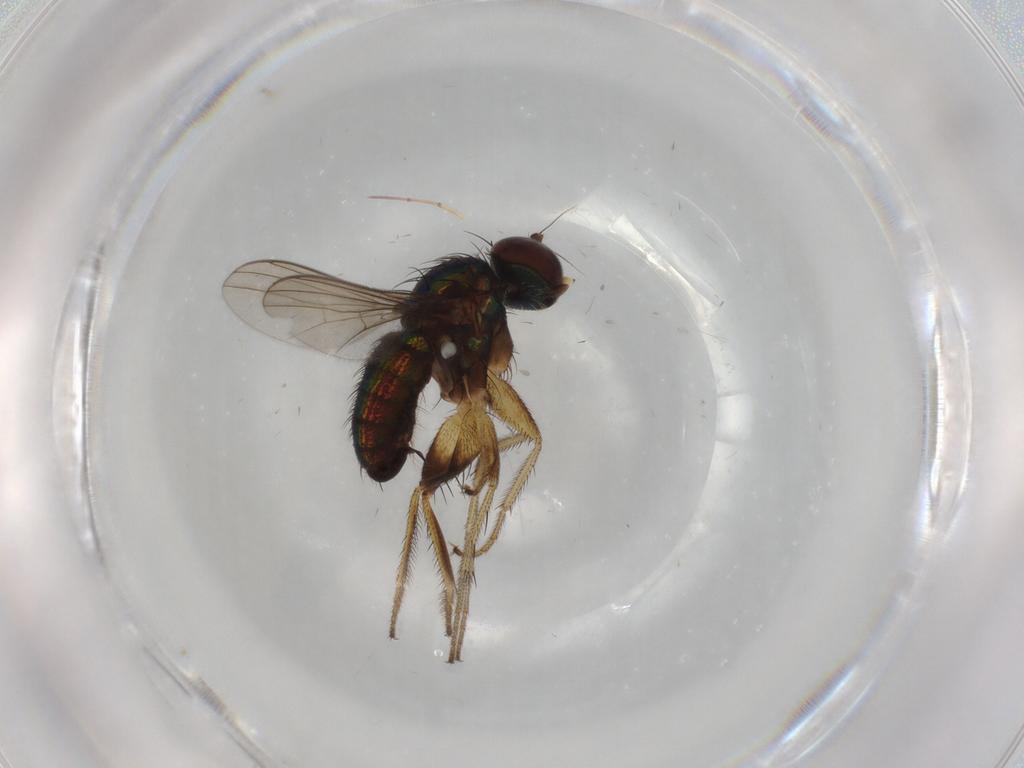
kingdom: Animalia
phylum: Arthropoda
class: Insecta
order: Diptera
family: Dolichopodidae
